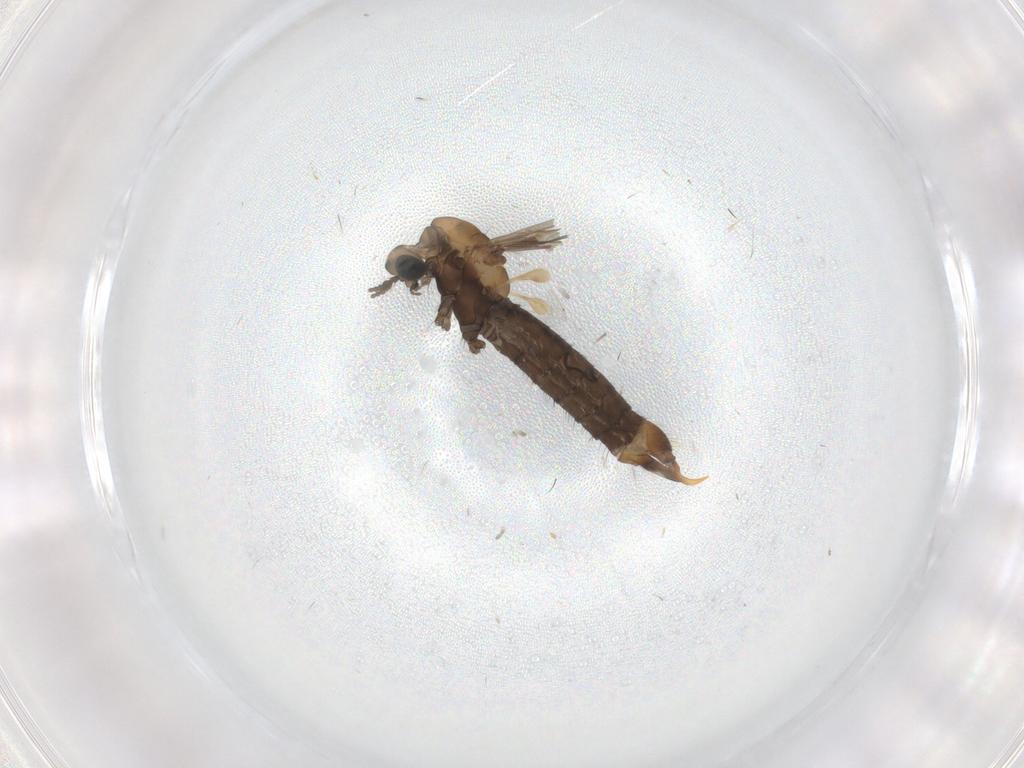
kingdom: Animalia
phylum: Arthropoda
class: Insecta
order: Diptera
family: Limoniidae
